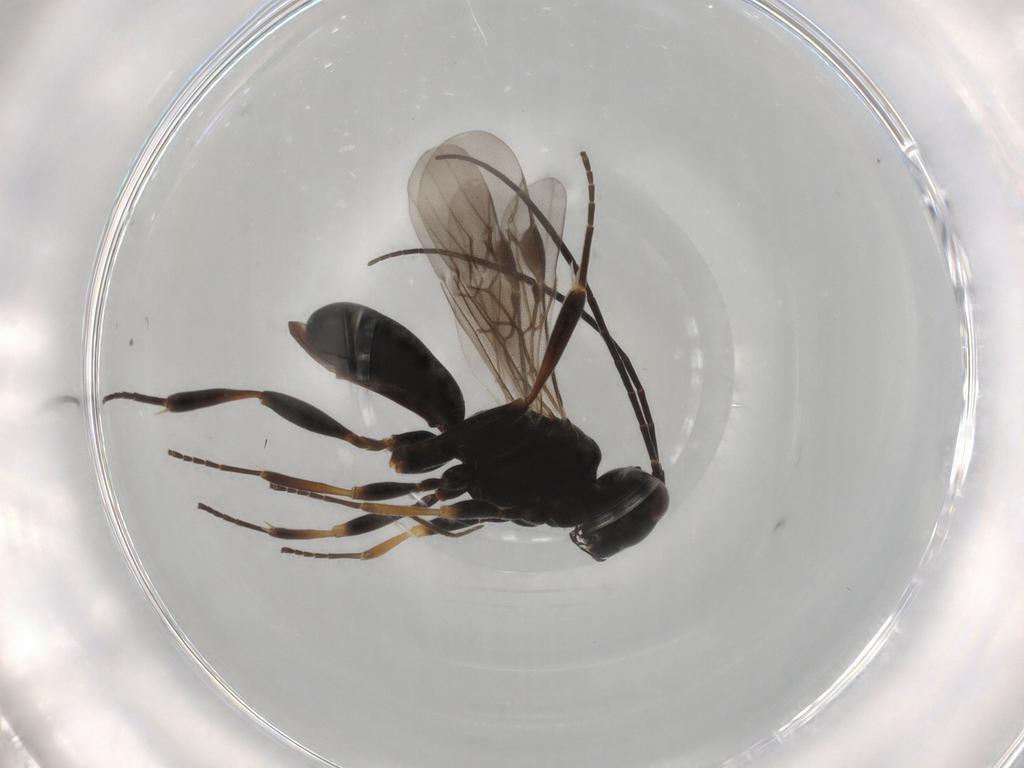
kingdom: Animalia
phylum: Arthropoda
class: Insecta
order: Hymenoptera
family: Braconidae
